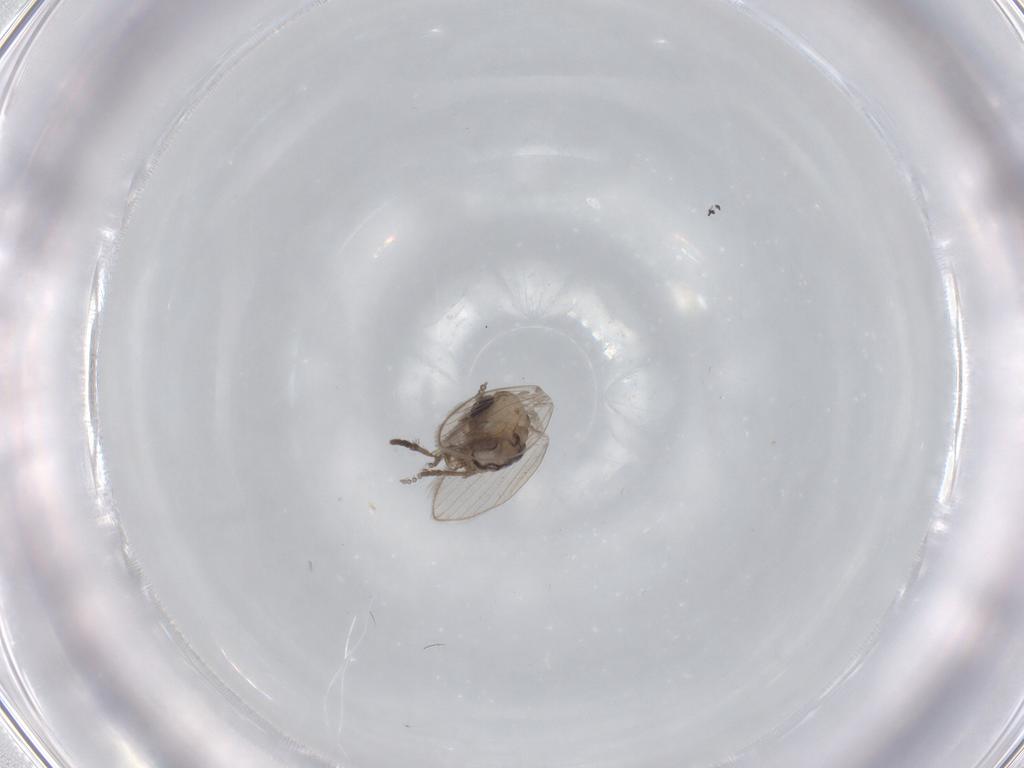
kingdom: Animalia
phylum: Arthropoda
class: Insecta
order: Diptera
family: Psychodidae
